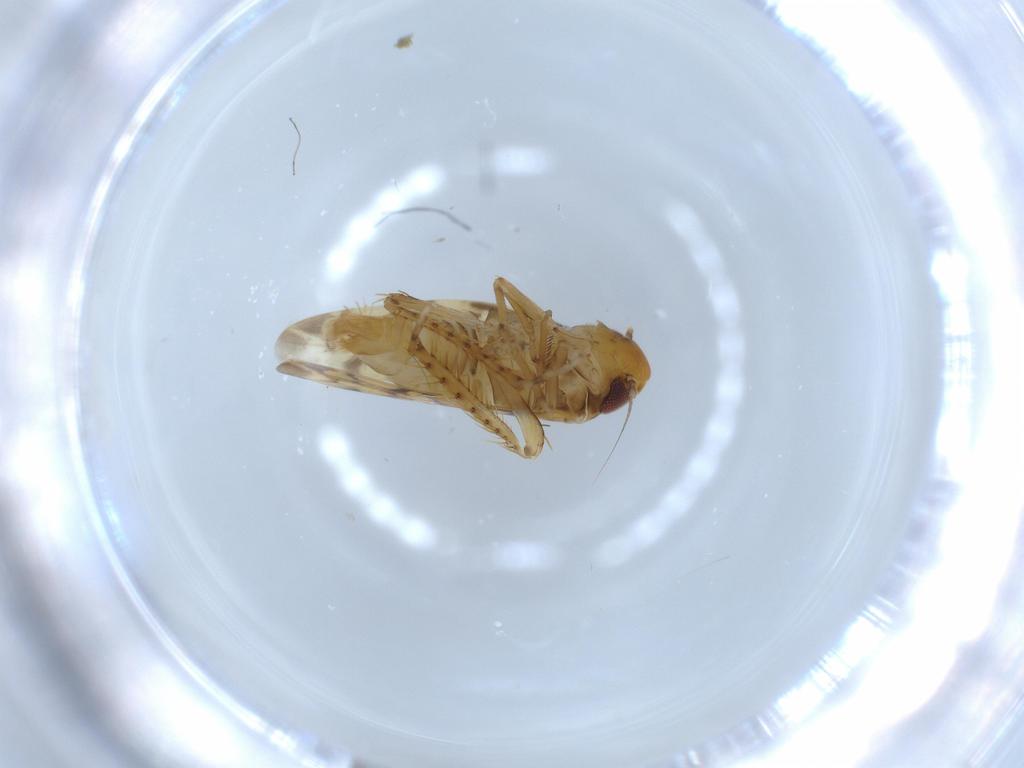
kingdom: Animalia
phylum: Arthropoda
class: Insecta
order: Hemiptera
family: Cicadellidae
